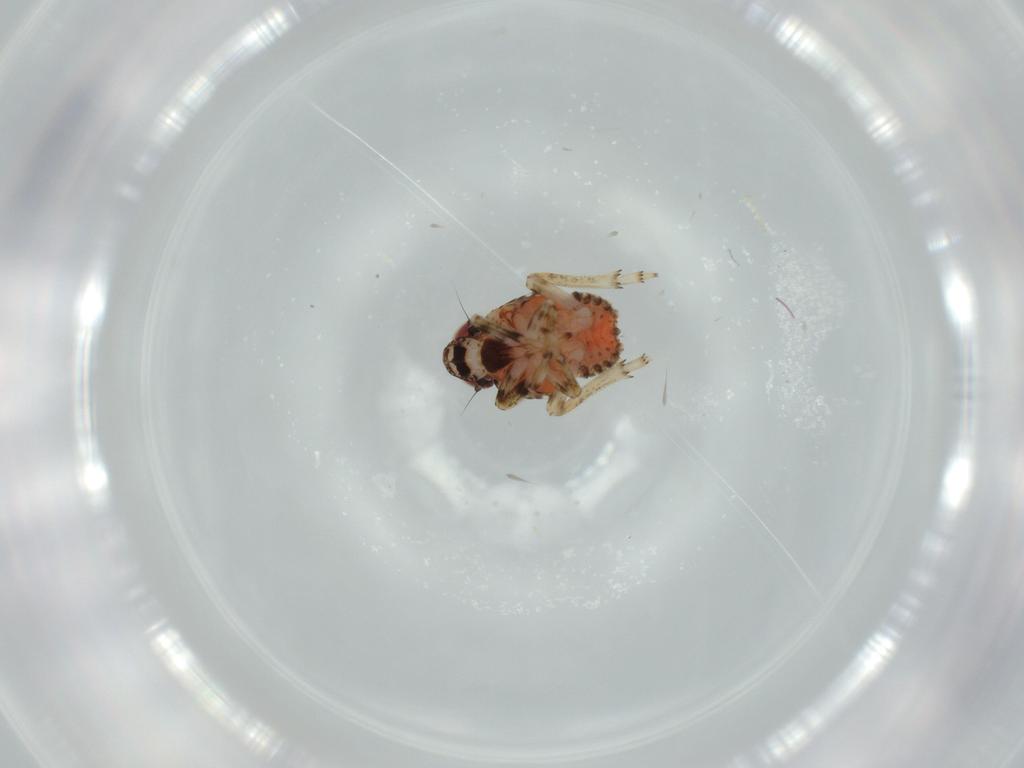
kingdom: Animalia
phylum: Arthropoda
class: Insecta
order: Hemiptera
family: Issidae
